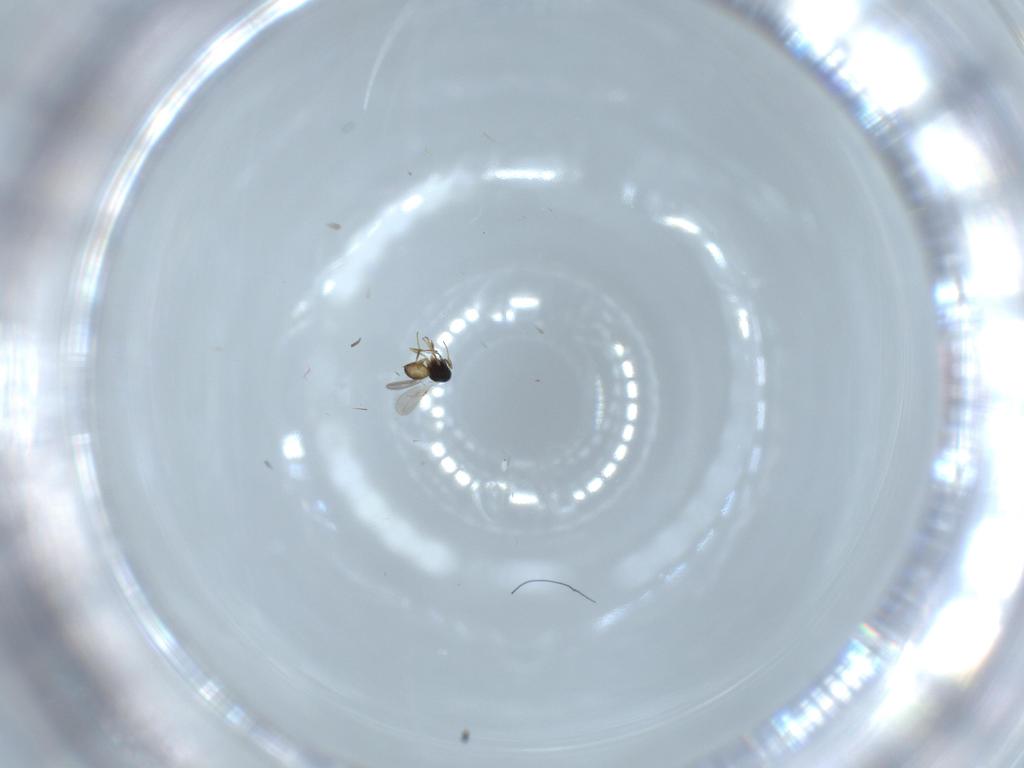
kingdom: Animalia
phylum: Arthropoda
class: Insecta
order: Hymenoptera
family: Scelionidae
